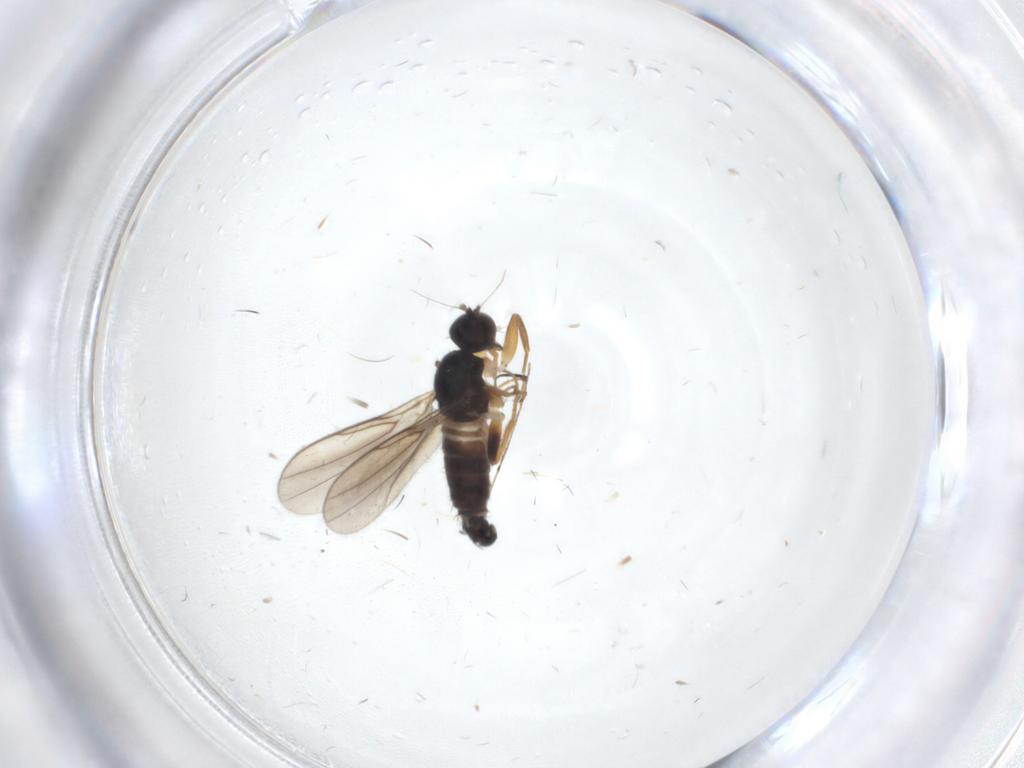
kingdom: Animalia
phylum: Arthropoda
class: Insecta
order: Diptera
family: Hybotidae
